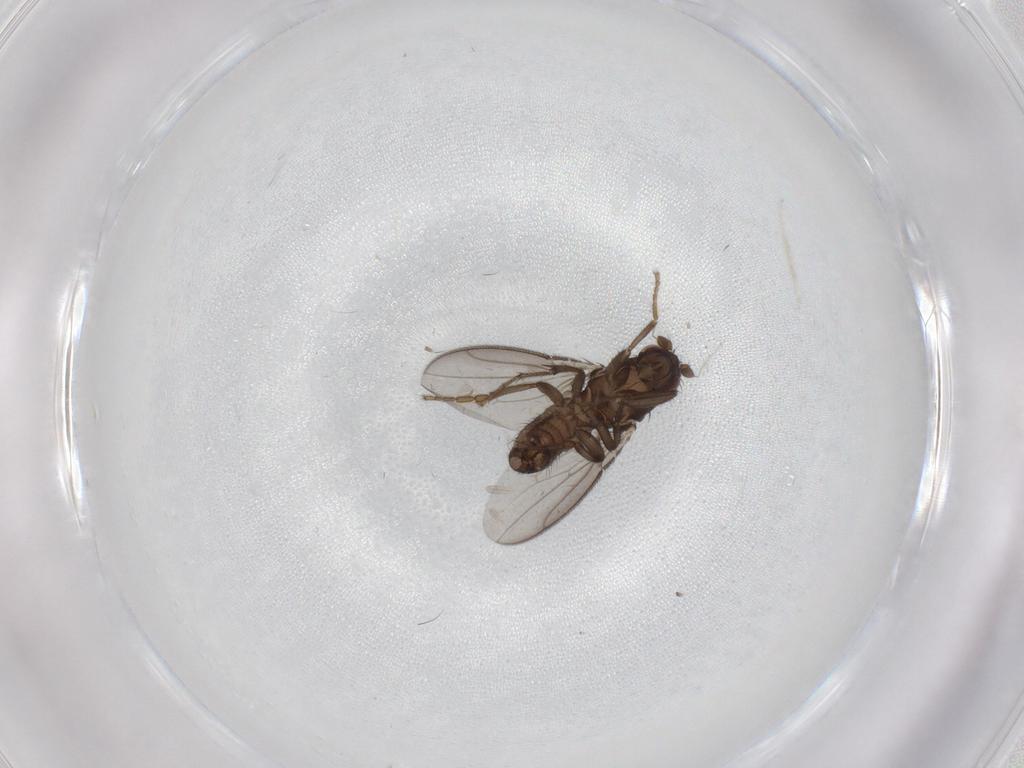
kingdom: Animalia
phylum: Arthropoda
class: Insecta
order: Diptera
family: Sphaeroceridae
